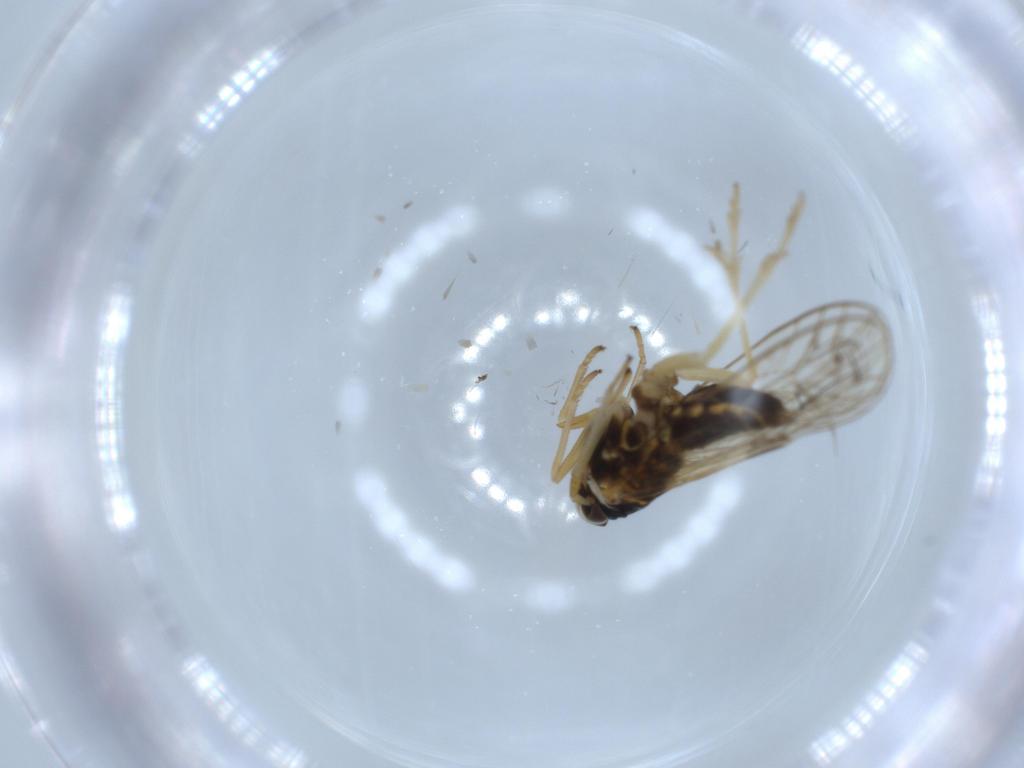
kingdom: Animalia
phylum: Arthropoda
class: Insecta
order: Hemiptera
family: Aleyrodidae
